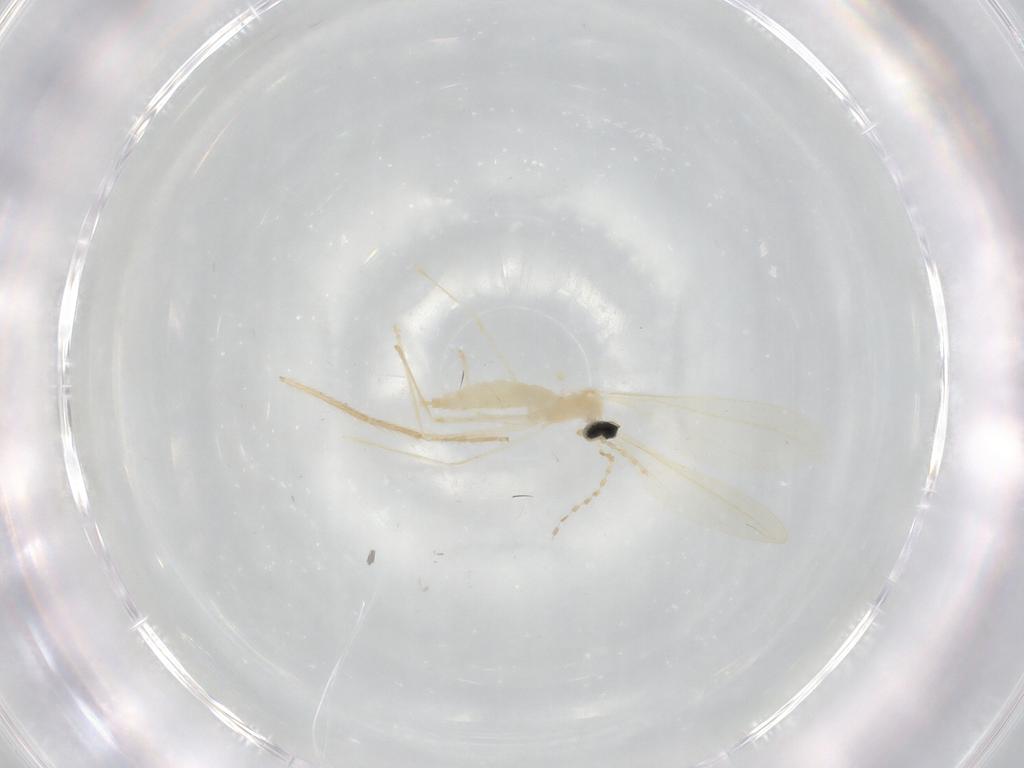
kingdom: Animalia
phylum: Arthropoda
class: Insecta
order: Diptera
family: Cecidomyiidae
